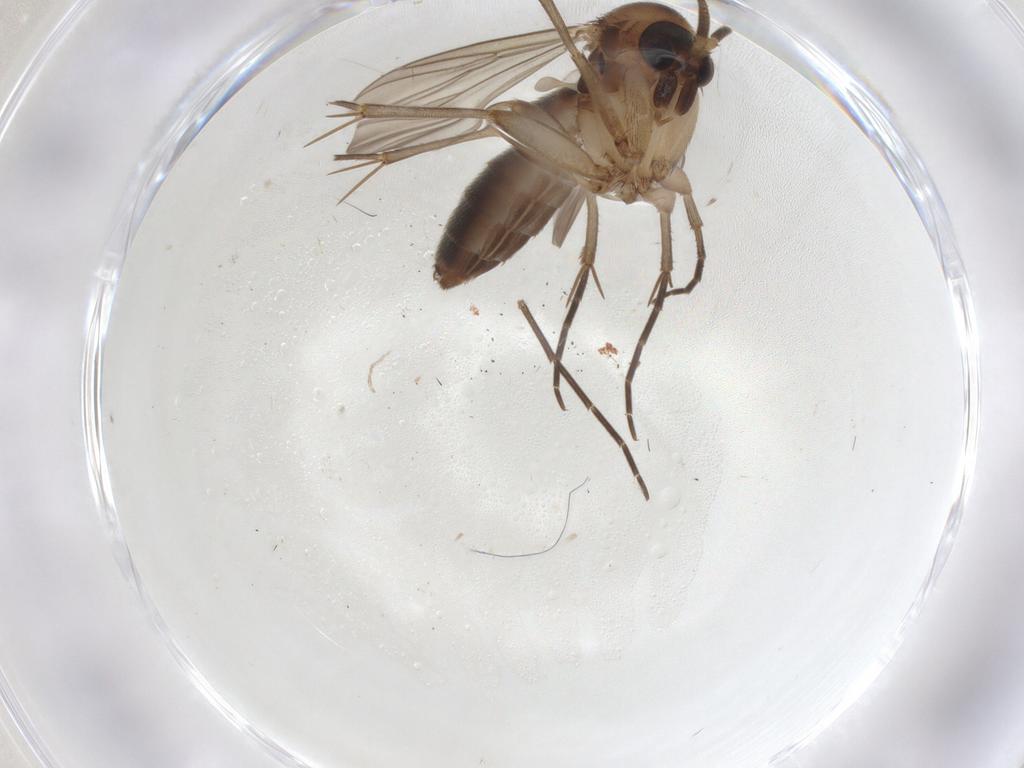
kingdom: Animalia
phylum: Arthropoda
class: Insecta
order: Diptera
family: Mycetophilidae
